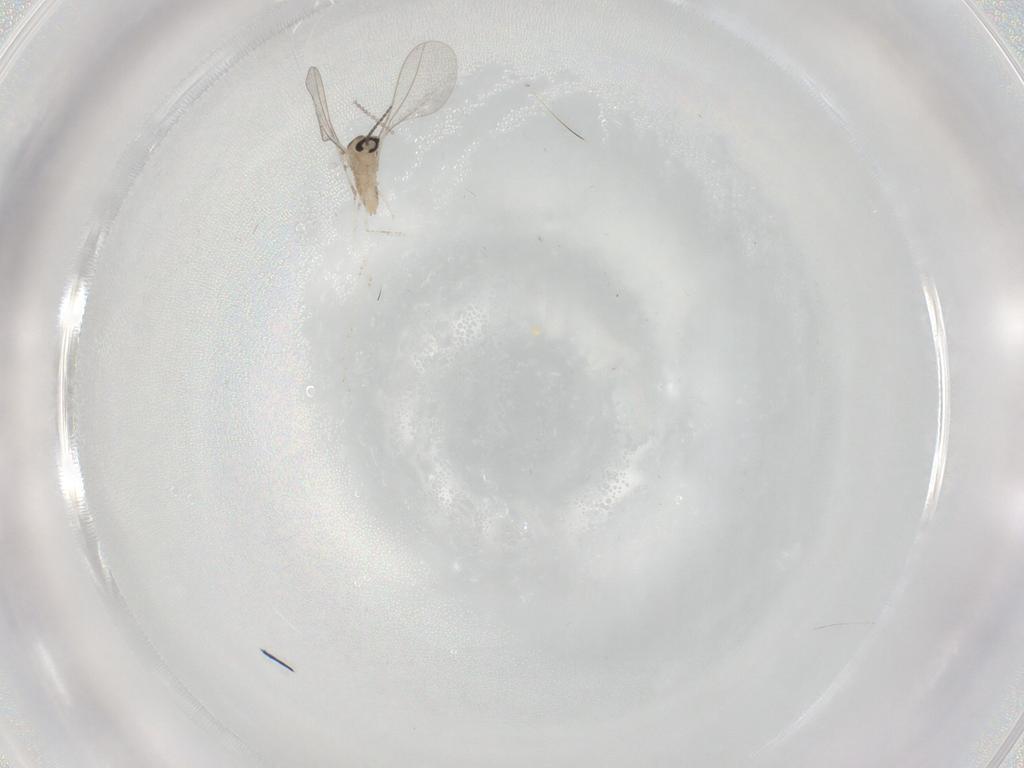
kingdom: Animalia
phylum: Arthropoda
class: Insecta
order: Diptera
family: Cecidomyiidae
